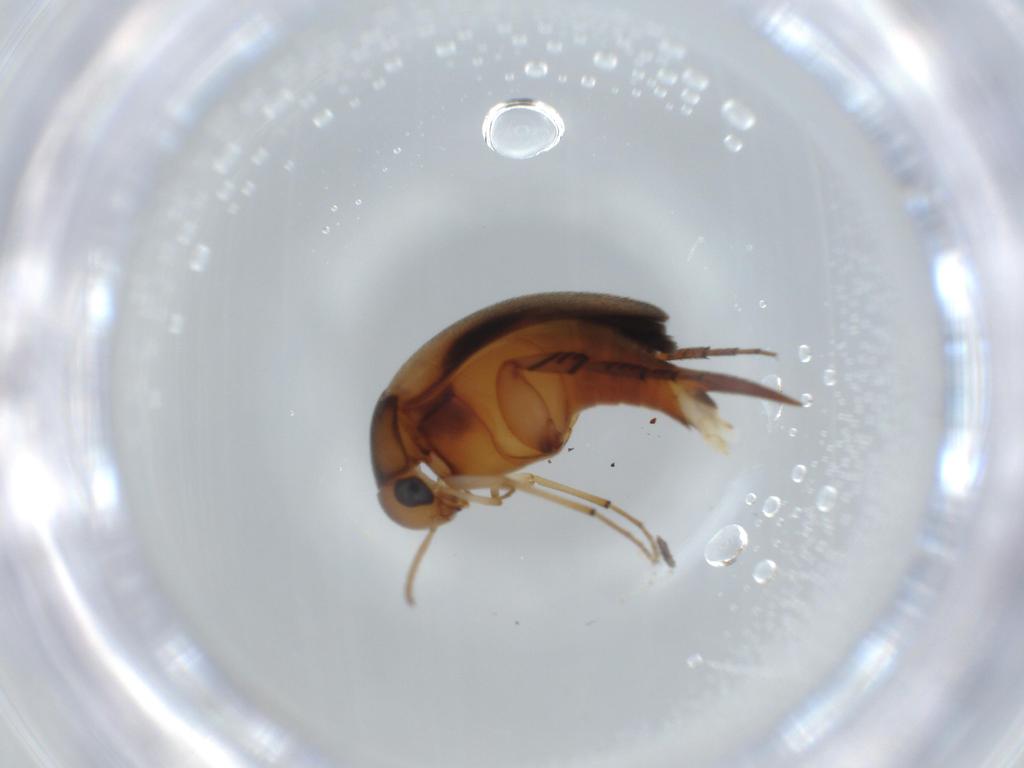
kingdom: Animalia
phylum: Arthropoda
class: Insecta
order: Coleoptera
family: Mordellidae
